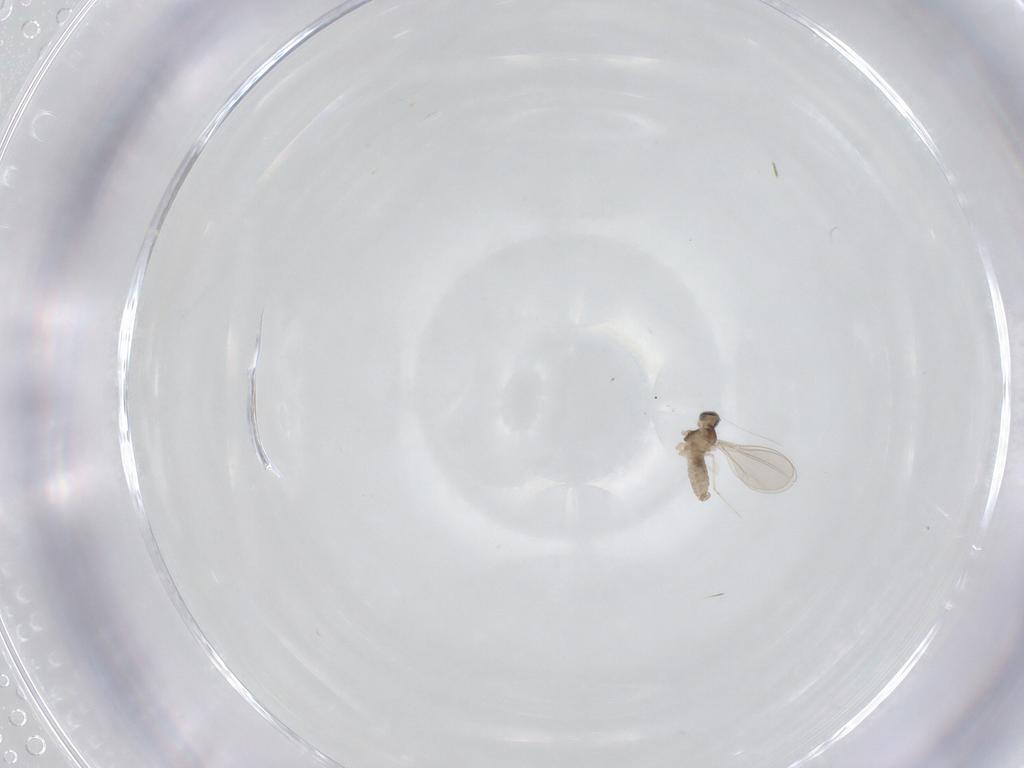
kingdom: Animalia
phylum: Arthropoda
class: Insecta
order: Diptera
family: Cecidomyiidae
